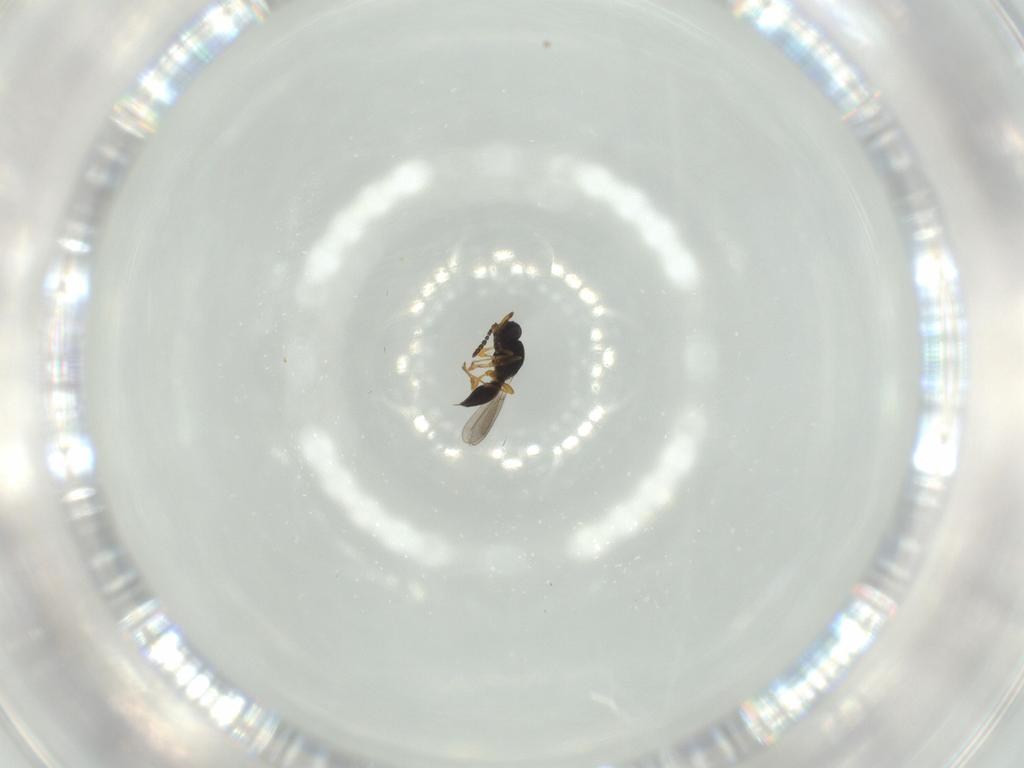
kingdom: Animalia
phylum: Arthropoda
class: Insecta
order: Hymenoptera
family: Platygastridae
